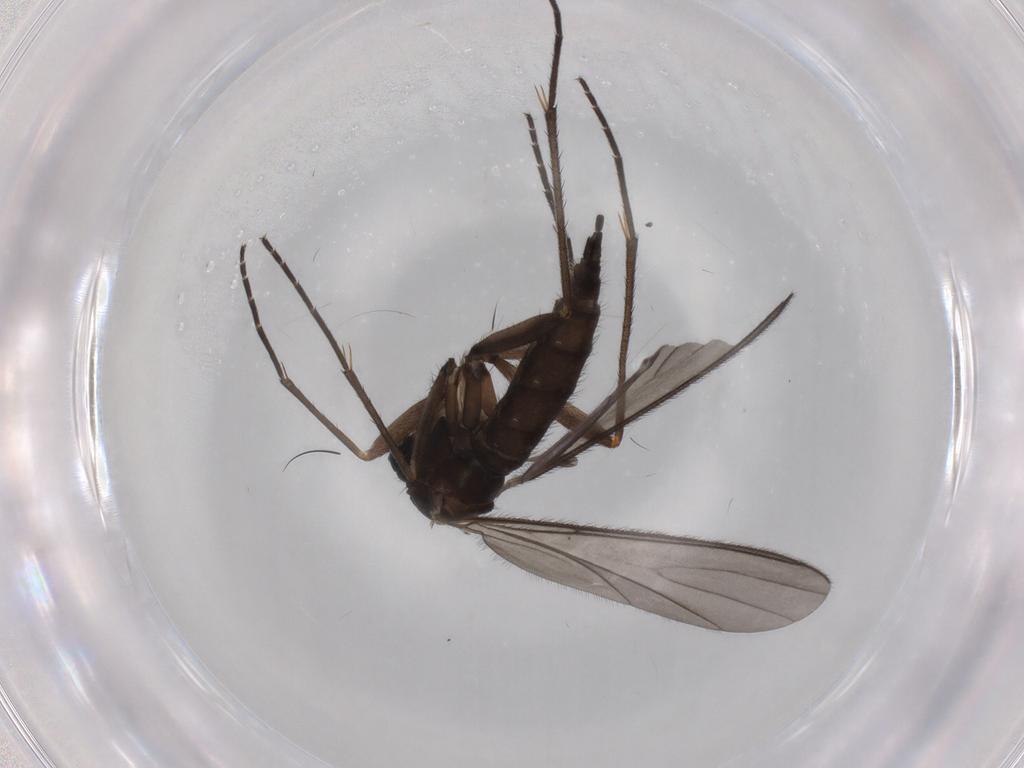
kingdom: Animalia
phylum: Arthropoda
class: Insecta
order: Diptera
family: Sciaridae
